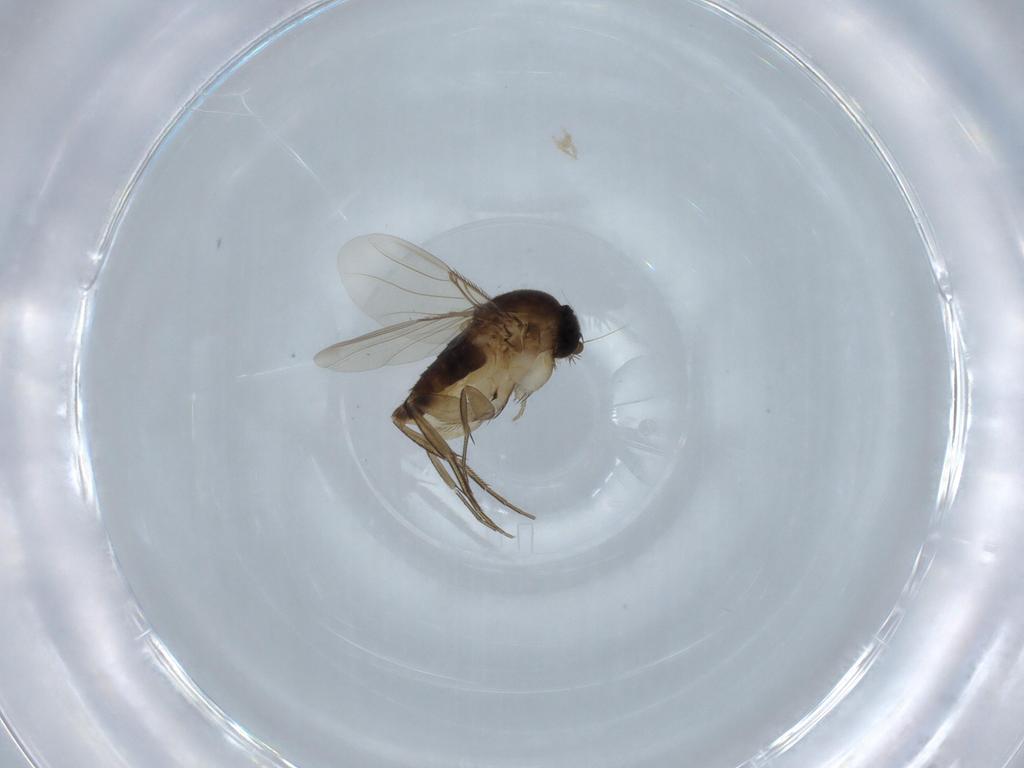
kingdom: Animalia
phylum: Arthropoda
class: Insecta
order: Diptera
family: Phoridae
